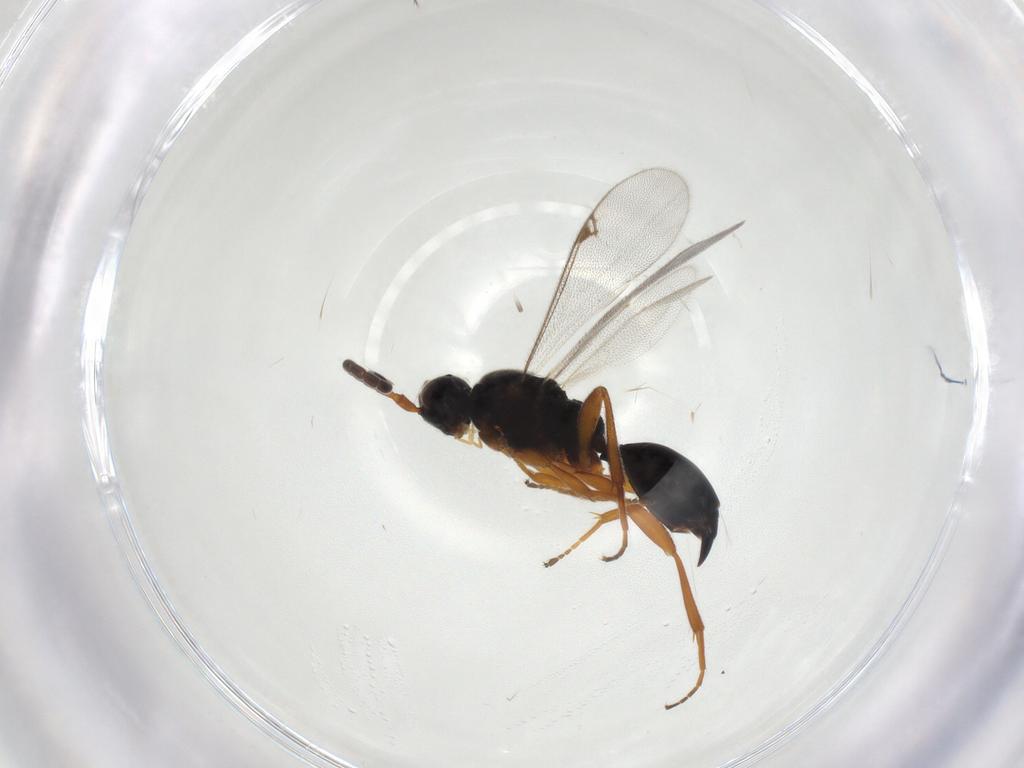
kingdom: Animalia
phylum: Arthropoda
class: Insecta
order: Hymenoptera
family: Proctotrupidae
